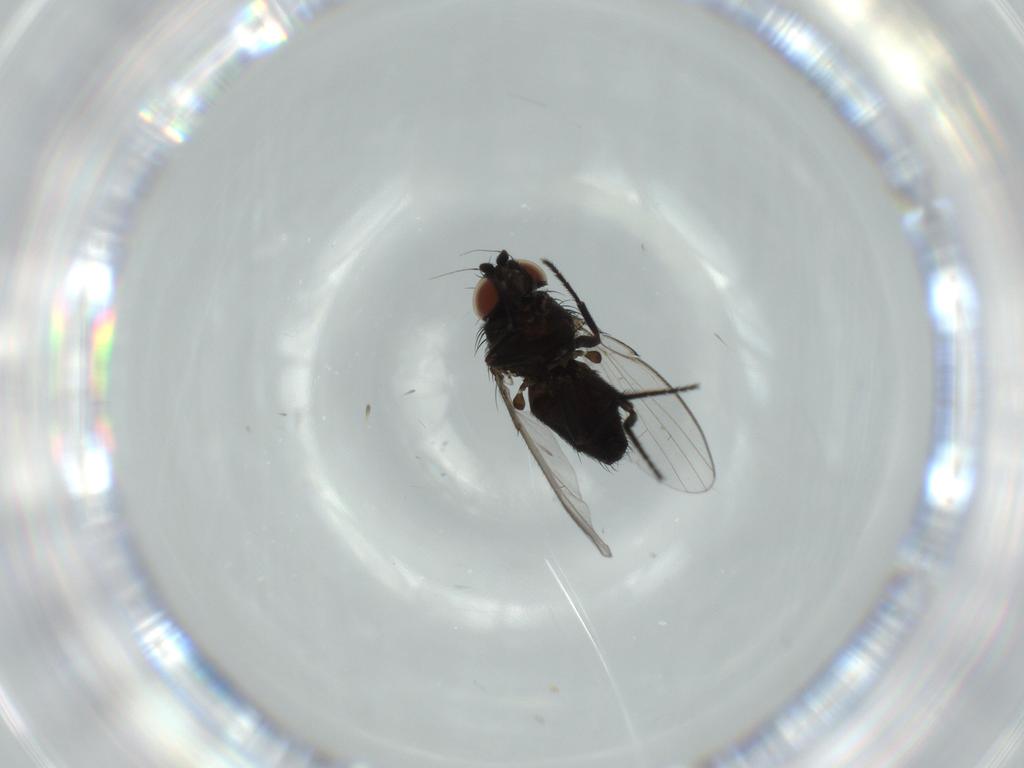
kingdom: Animalia
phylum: Arthropoda
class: Insecta
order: Diptera
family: Milichiidae
